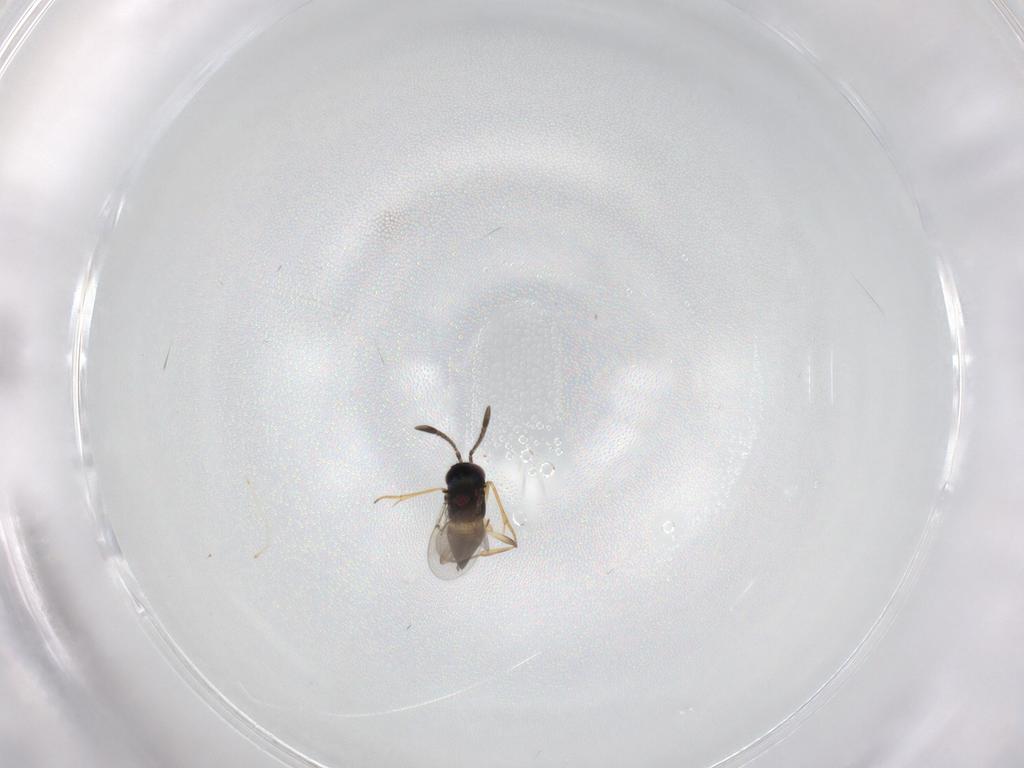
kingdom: Animalia
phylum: Arthropoda
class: Insecta
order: Hymenoptera
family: Platygastridae
